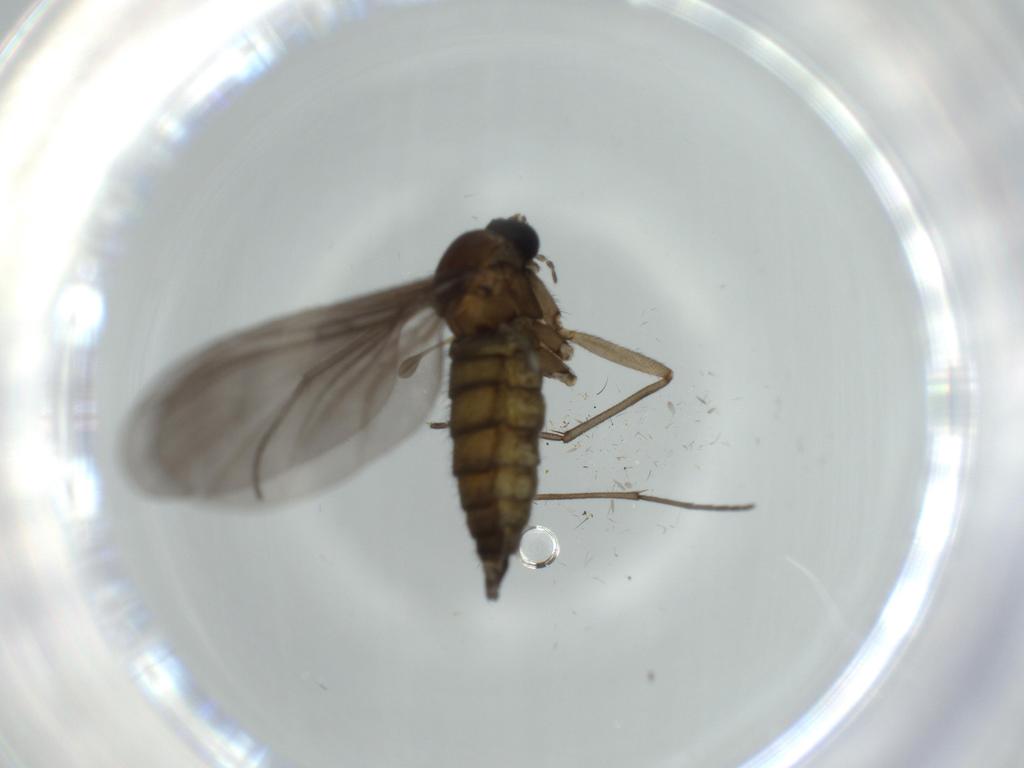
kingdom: Animalia
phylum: Arthropoda
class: Insecta
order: Diptera
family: Sciaridae
